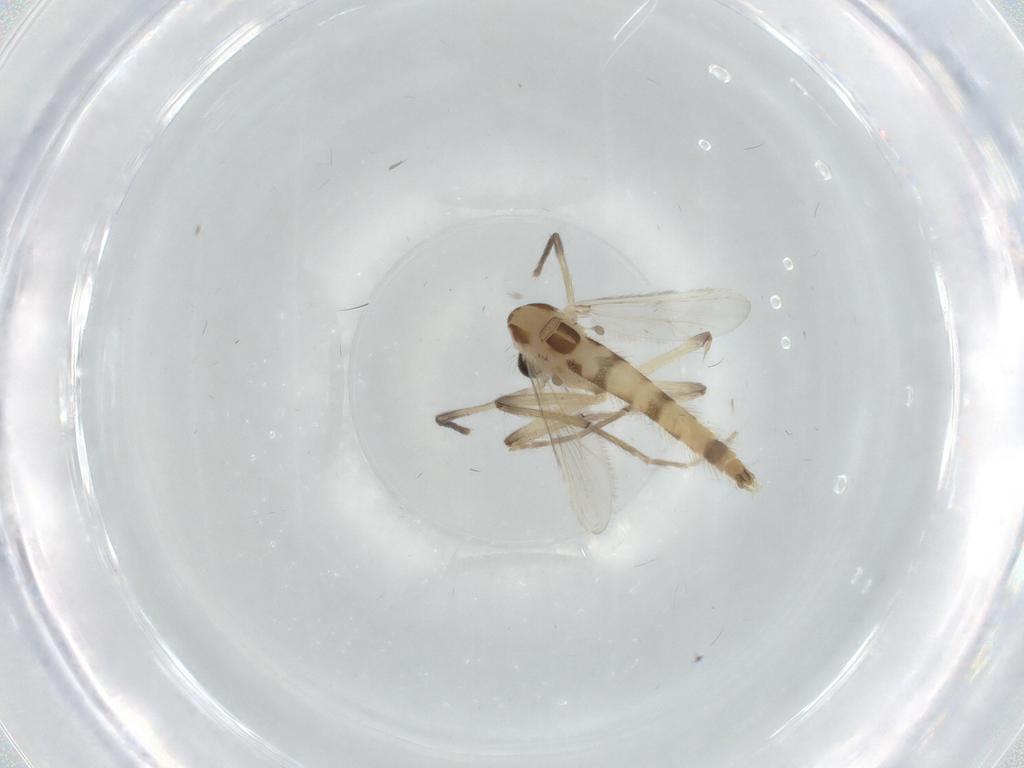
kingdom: Animalia
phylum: Arthropoda
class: Insecta
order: Diptera
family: Chironomidae
